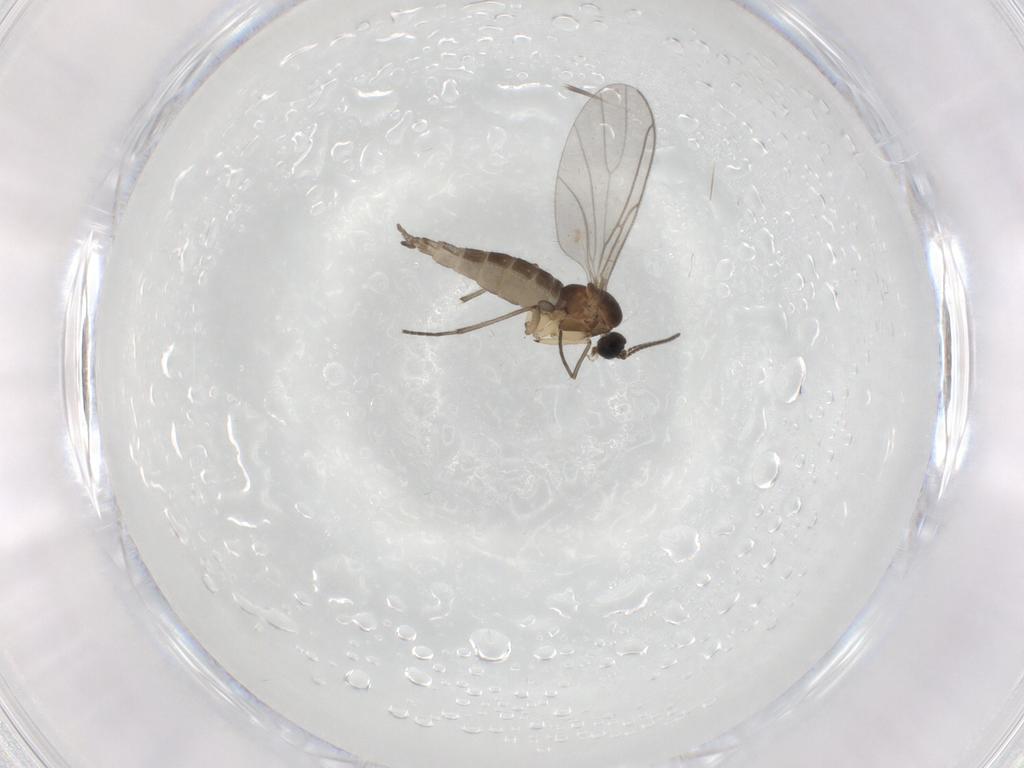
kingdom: Animalia
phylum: Arthropoda
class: Insecta
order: Diptera
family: Sciaridae
